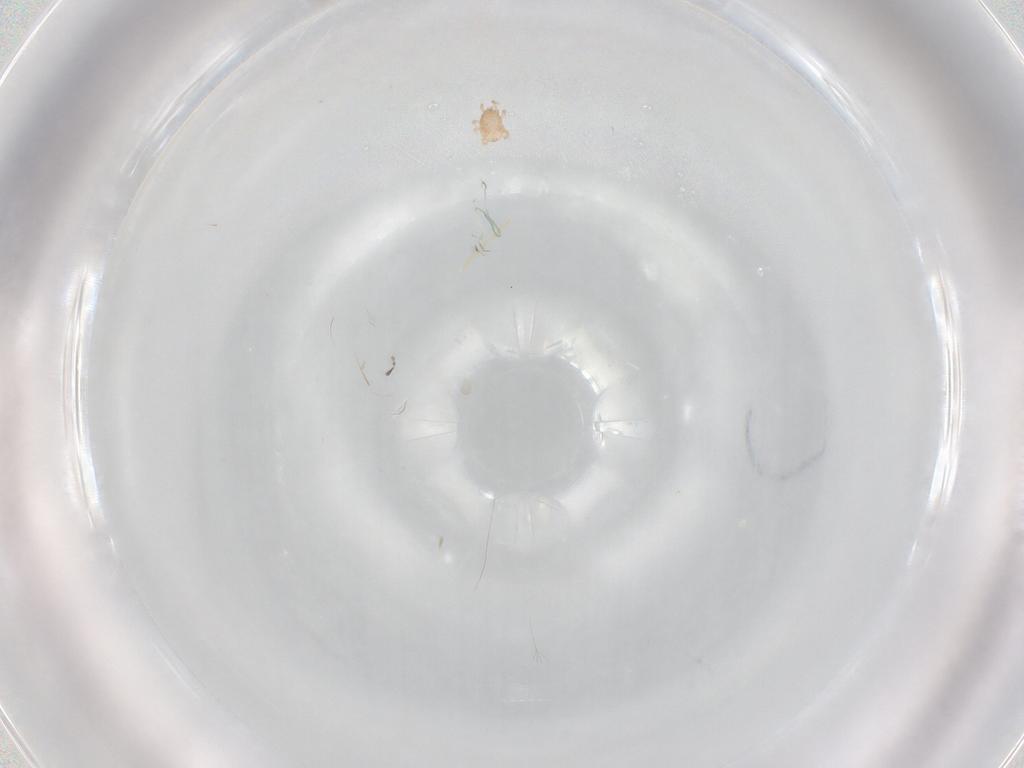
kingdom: Animalia
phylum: Arthropoda
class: Arachnida
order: Mesostigmata
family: Ascidae
